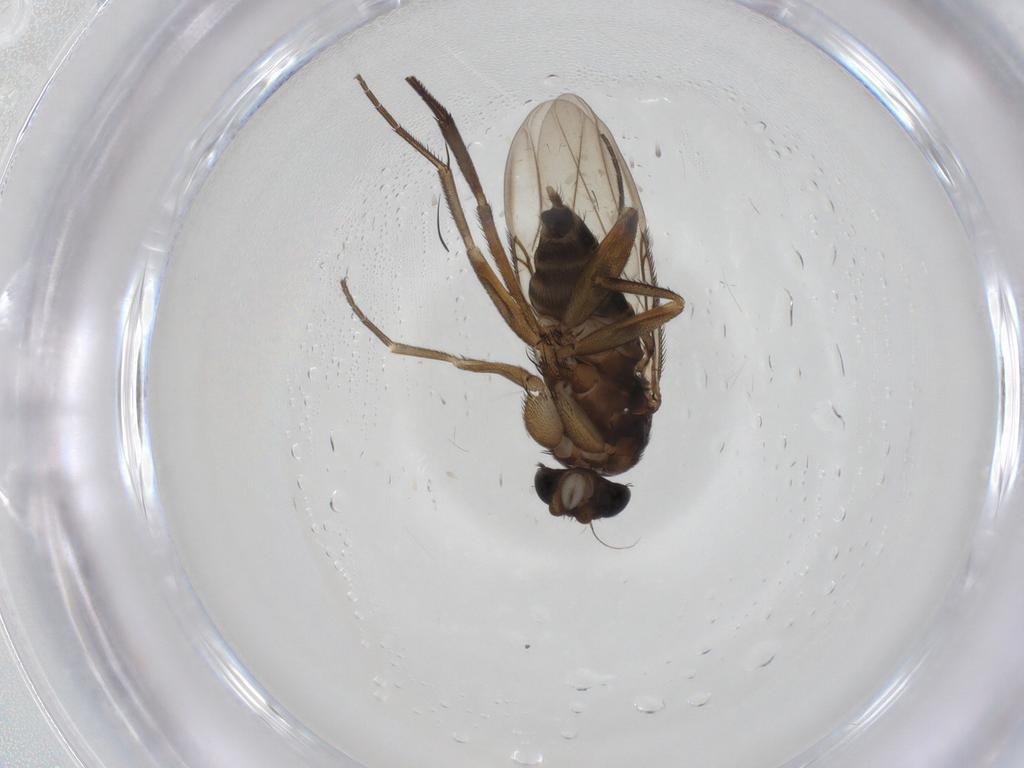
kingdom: Animalia
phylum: Arthropoda
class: Insecta
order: Diptera
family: Phoridae
